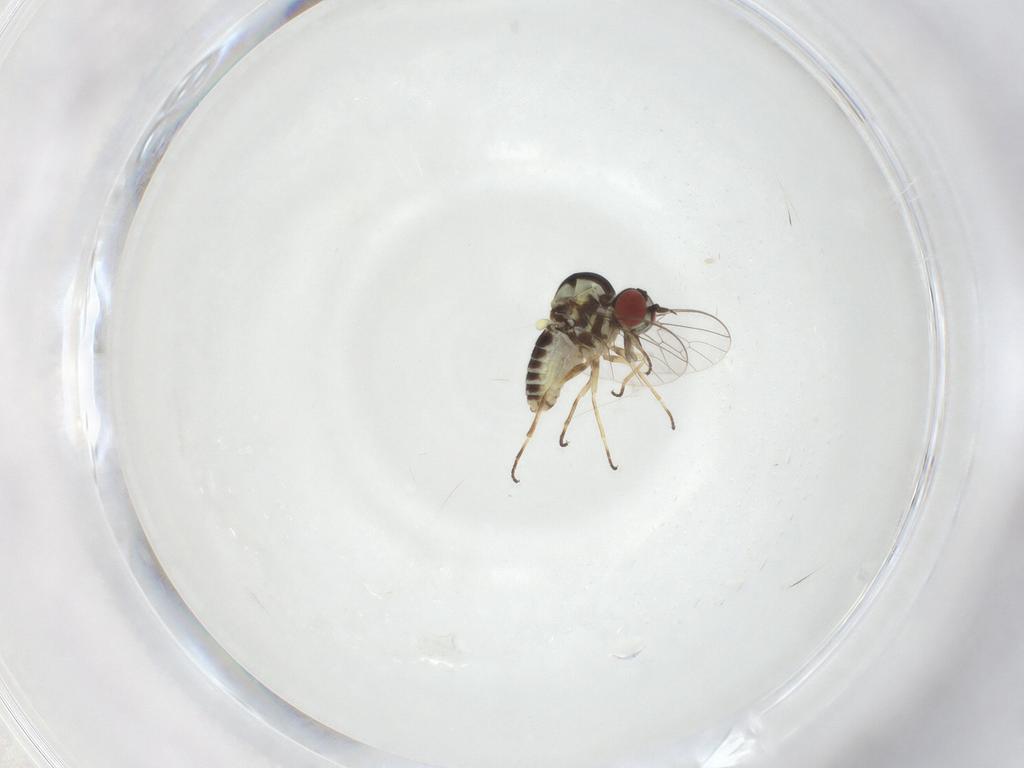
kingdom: Animalia
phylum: Arthropoda
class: Insecta
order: Diptera
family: Bombyliidae
